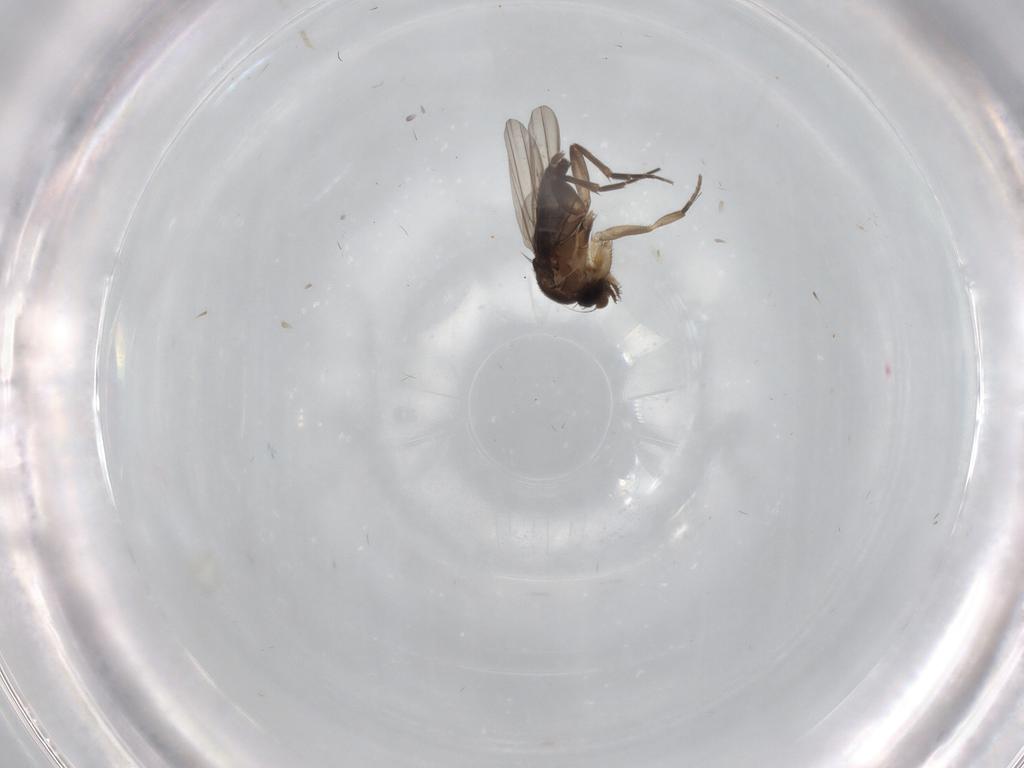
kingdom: Animalia
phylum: Arthropoda
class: Insecta
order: Diptera
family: Phoridae
